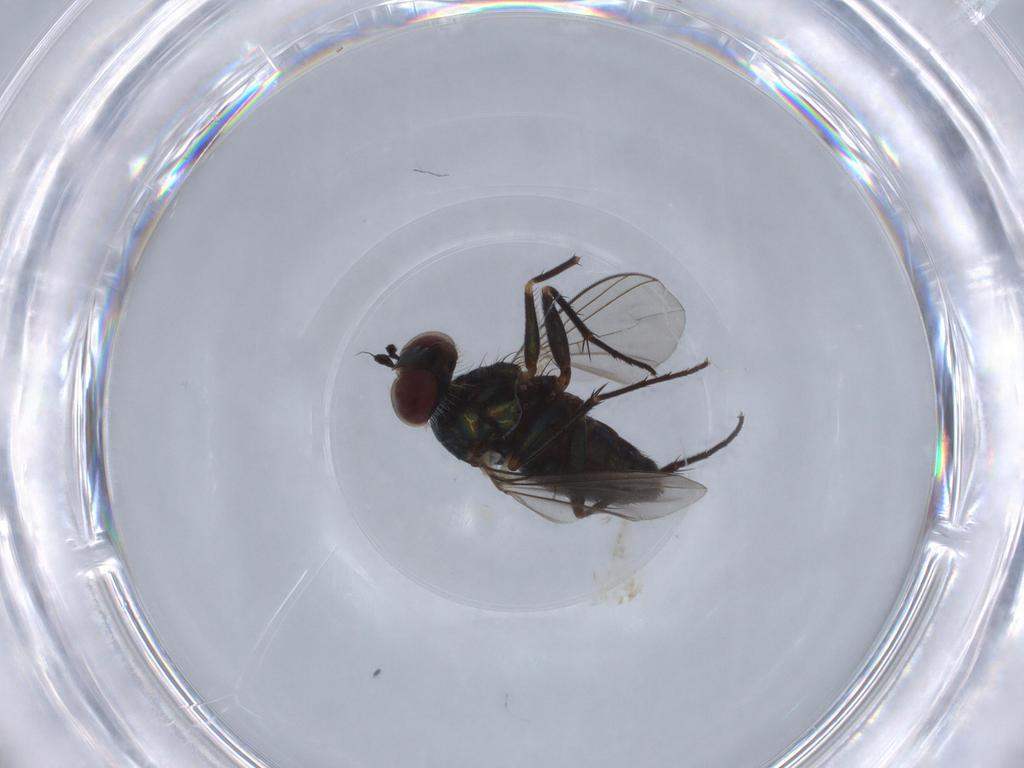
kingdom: Animalia
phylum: Arthropoda
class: Insecta
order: Diptera
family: Dolichopodidae
